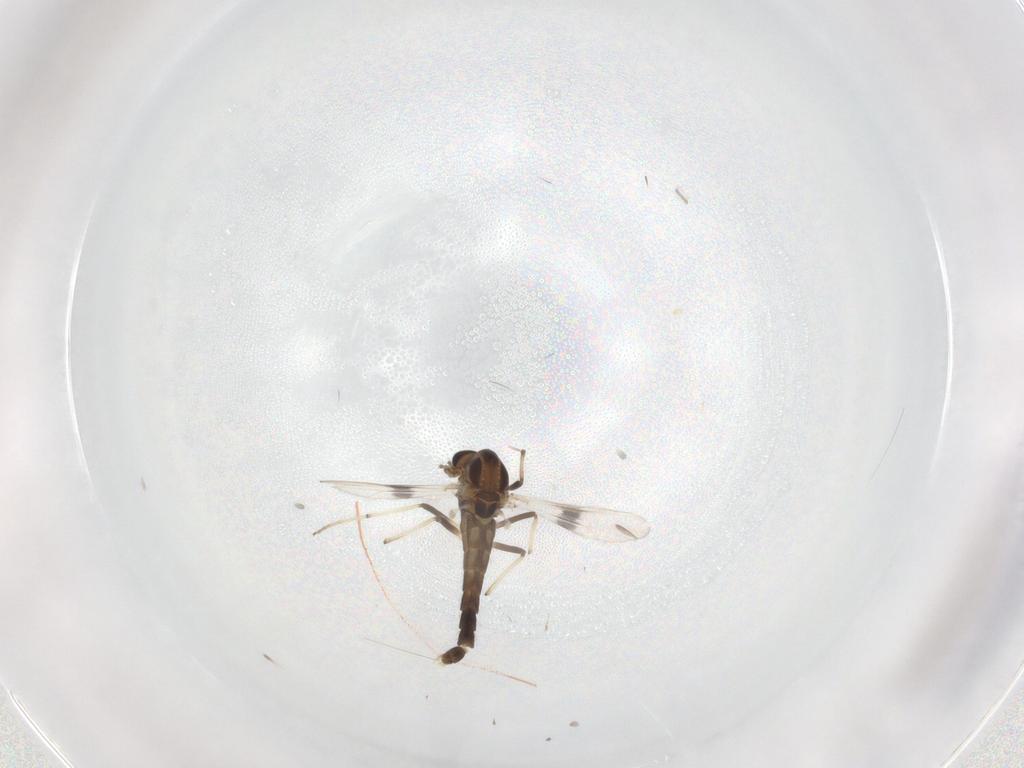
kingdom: Animalia
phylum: Arthropoda
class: Insecta
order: Diptera
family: Chironomidae
